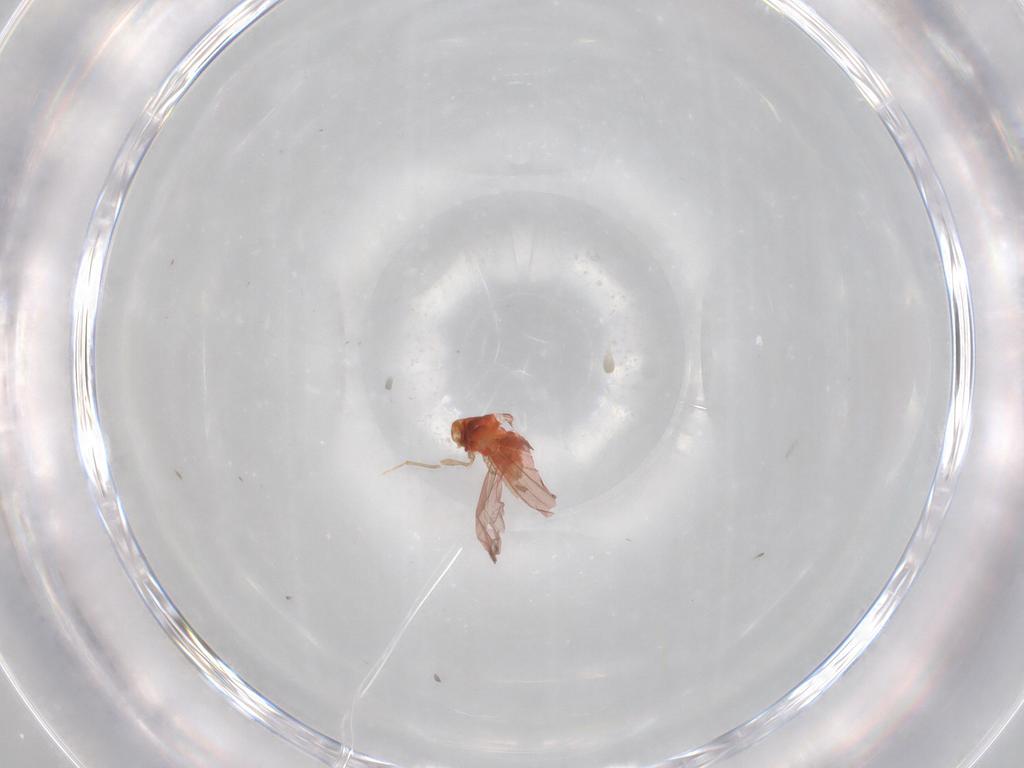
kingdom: Animalia
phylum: Arthropoda
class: Insecta
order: Hemiptera
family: Aleyrodidae
